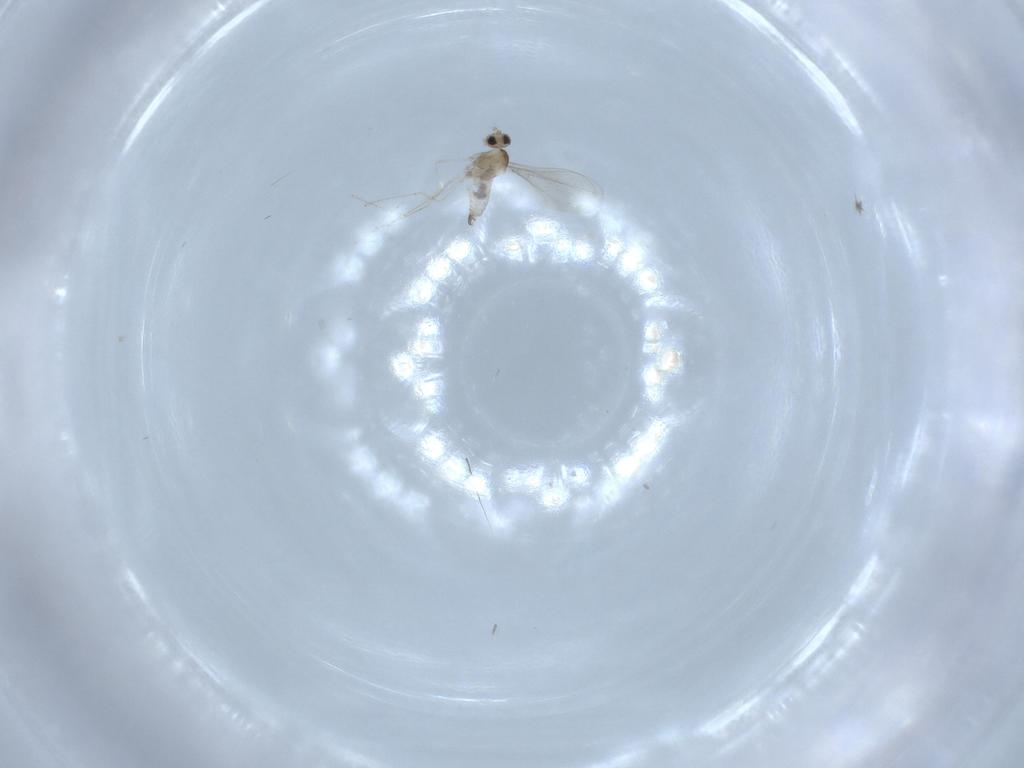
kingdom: Animalia
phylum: Arthropoda
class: Insecta
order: Diptera
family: Cecidomyiidae
